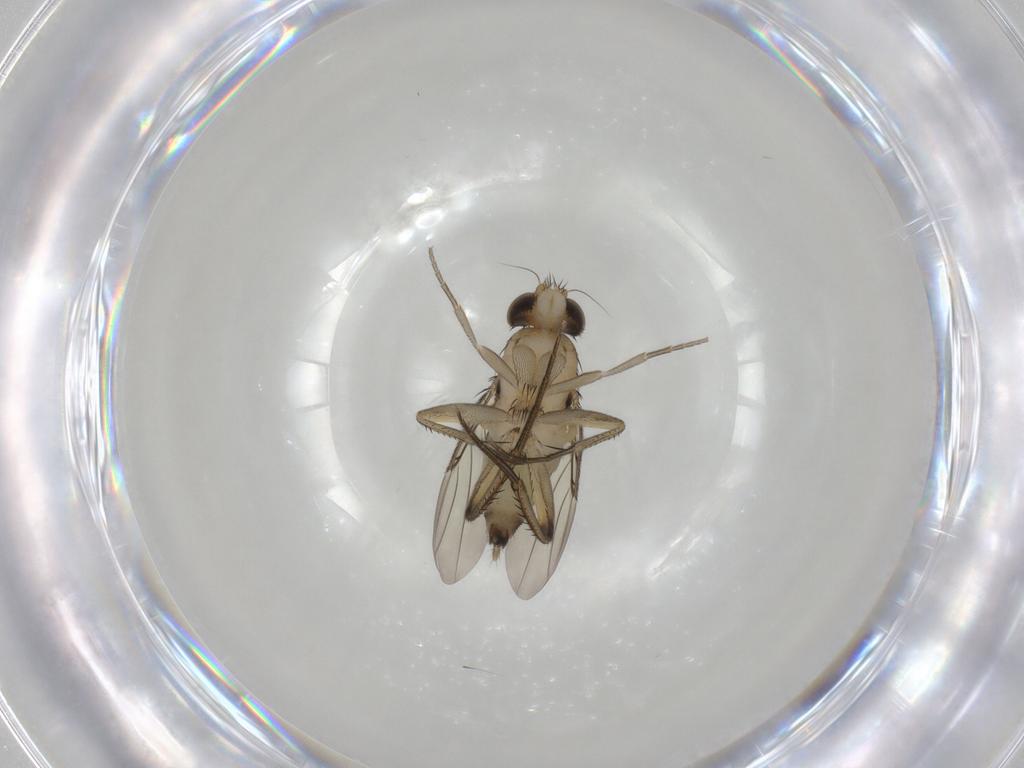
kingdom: Animalia
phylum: Arthropoda
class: Insecta
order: Diptera
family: Phoridae
